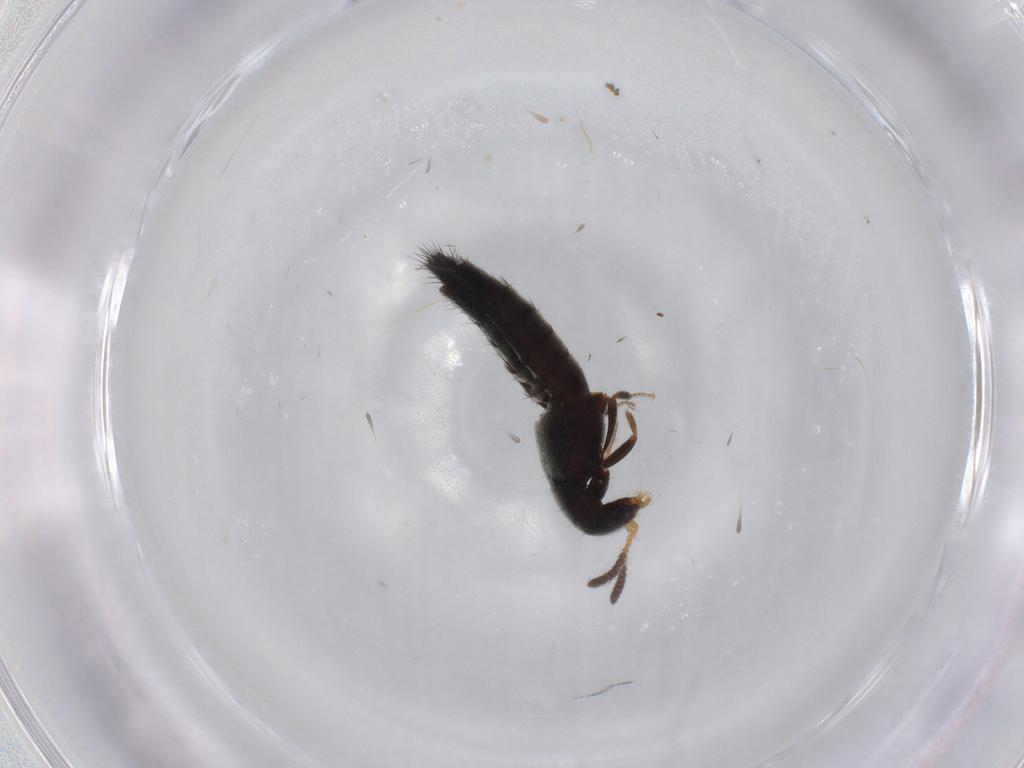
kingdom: Animalia
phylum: Arthropoda
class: Insecta
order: Coleoptera
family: Staphylinidae
